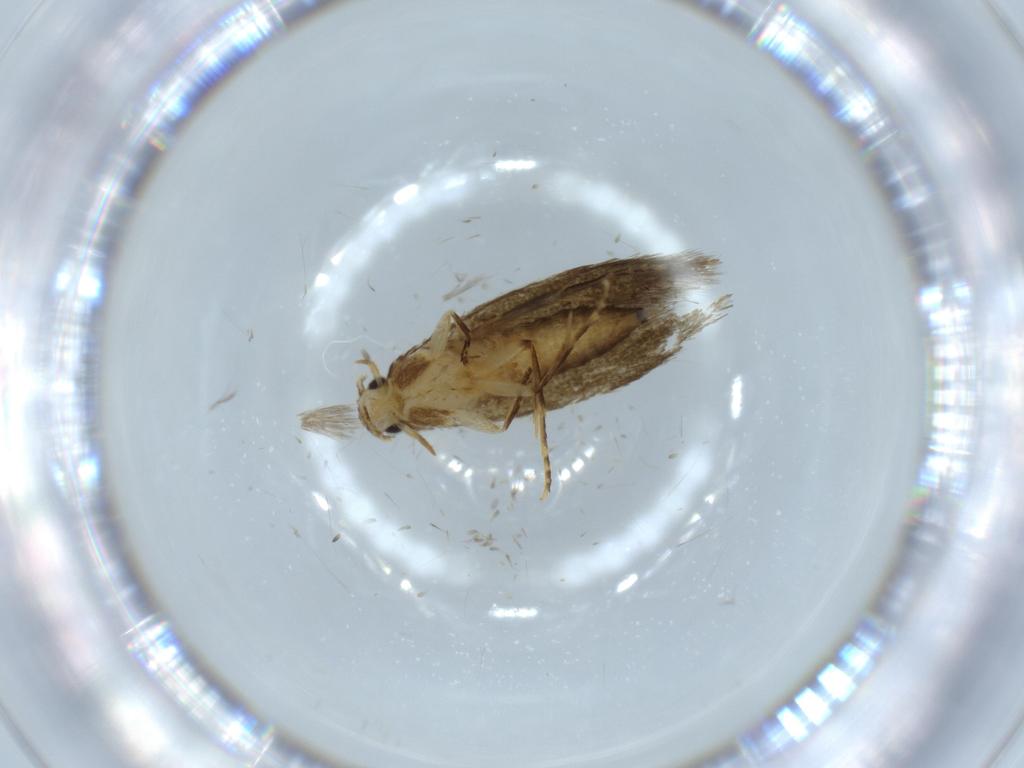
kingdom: Animalia
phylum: Arthropoda
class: Insecta
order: Lepidoptera
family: Tineidae
